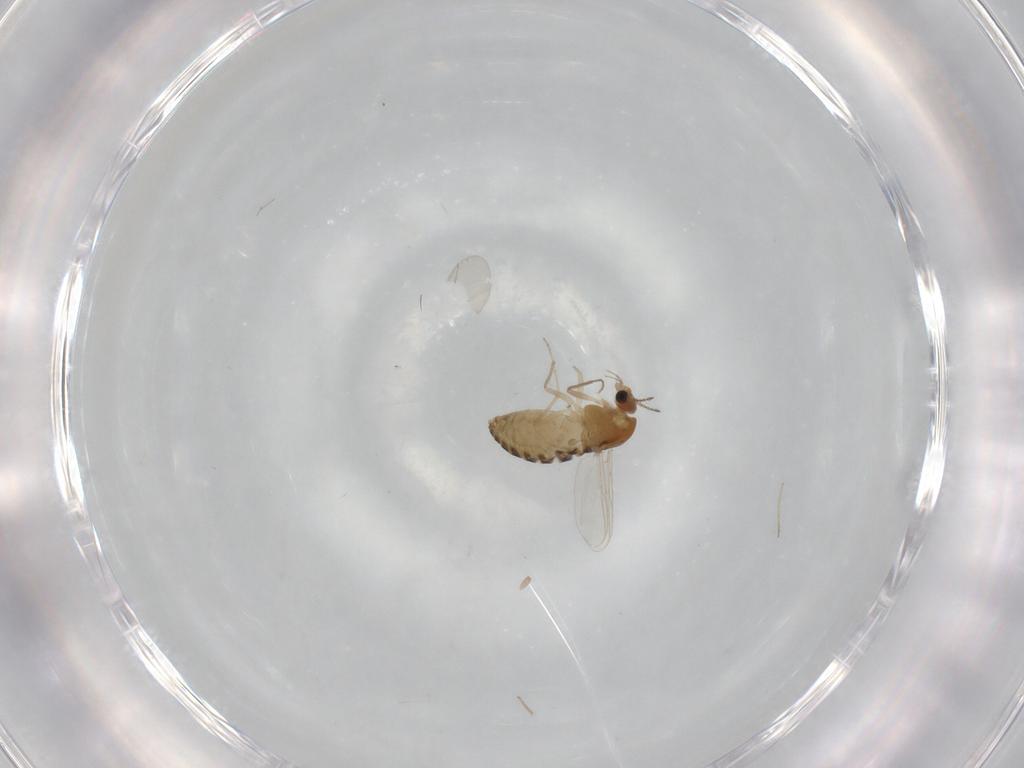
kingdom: Animalia
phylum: Arthropoda
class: Insecta
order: Diptera
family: Chironomidae
